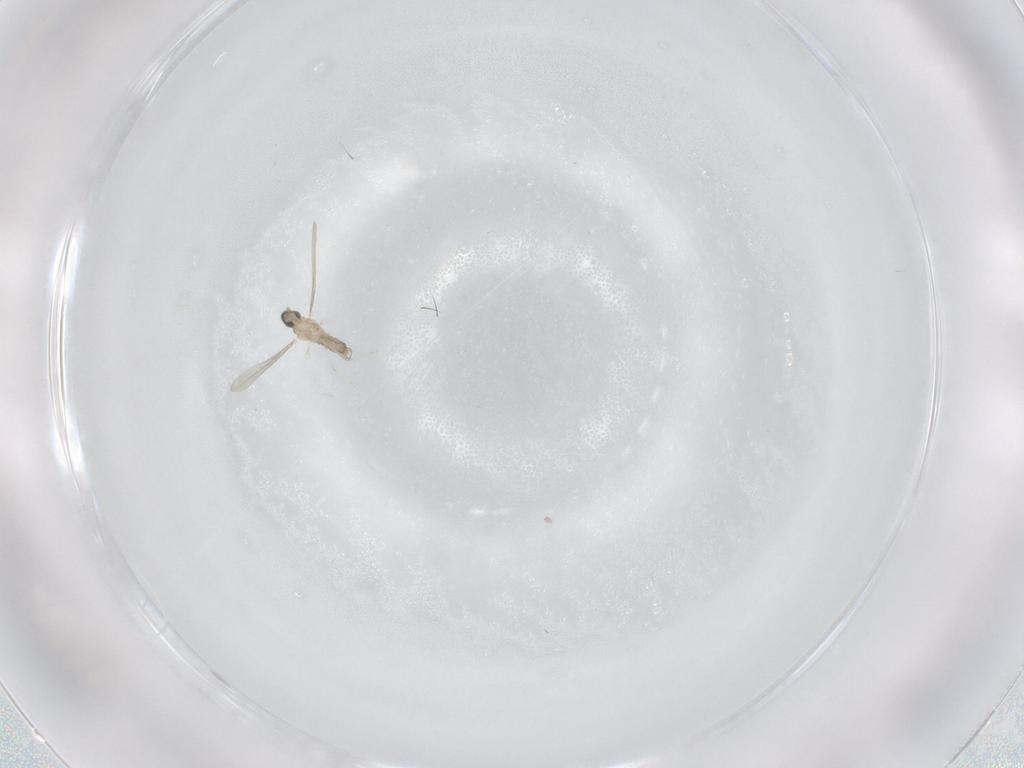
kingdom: Animalia
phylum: Arthropoda
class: Insecta
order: Diptera
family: Cecidomyiidae
